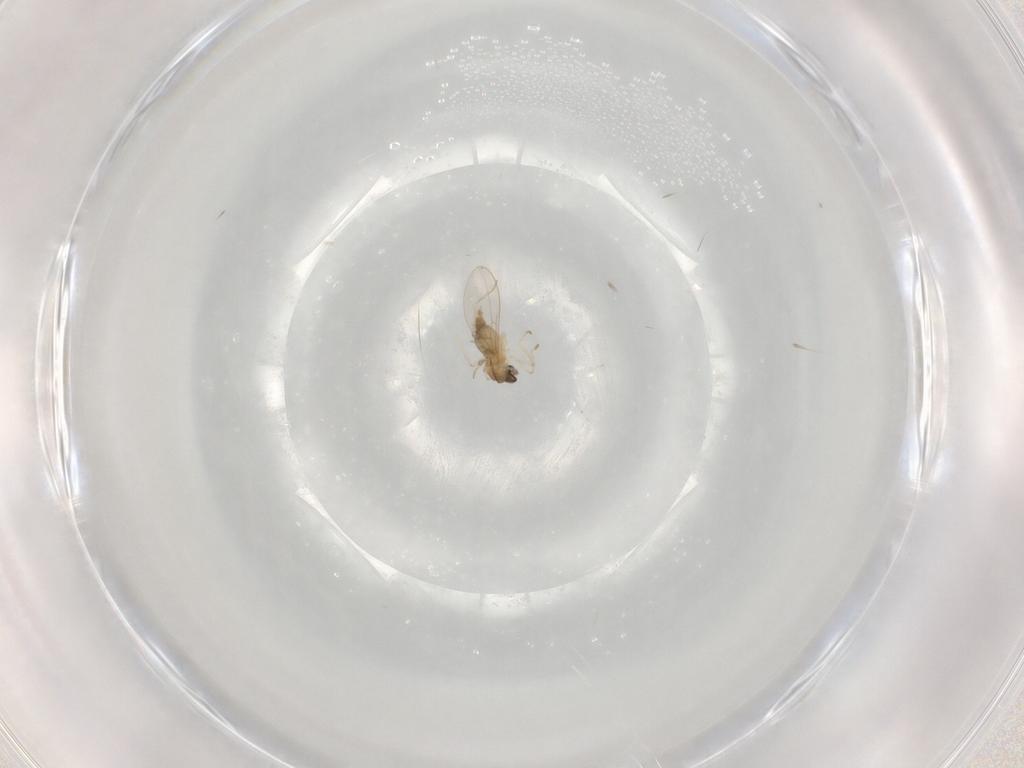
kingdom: Animalia
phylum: Arthropoda
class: Insecta
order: Diptera
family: Cecidomyiidae
